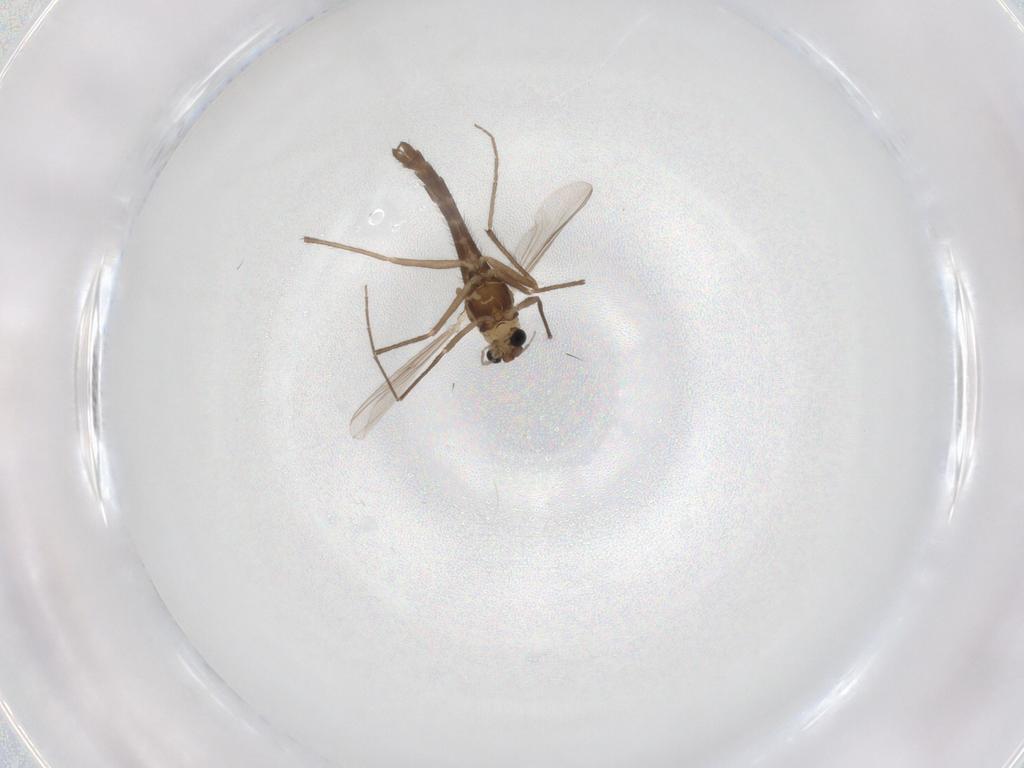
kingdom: Animalia
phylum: Arthropoda
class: Insecta
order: Diptera
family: Chironomidae
